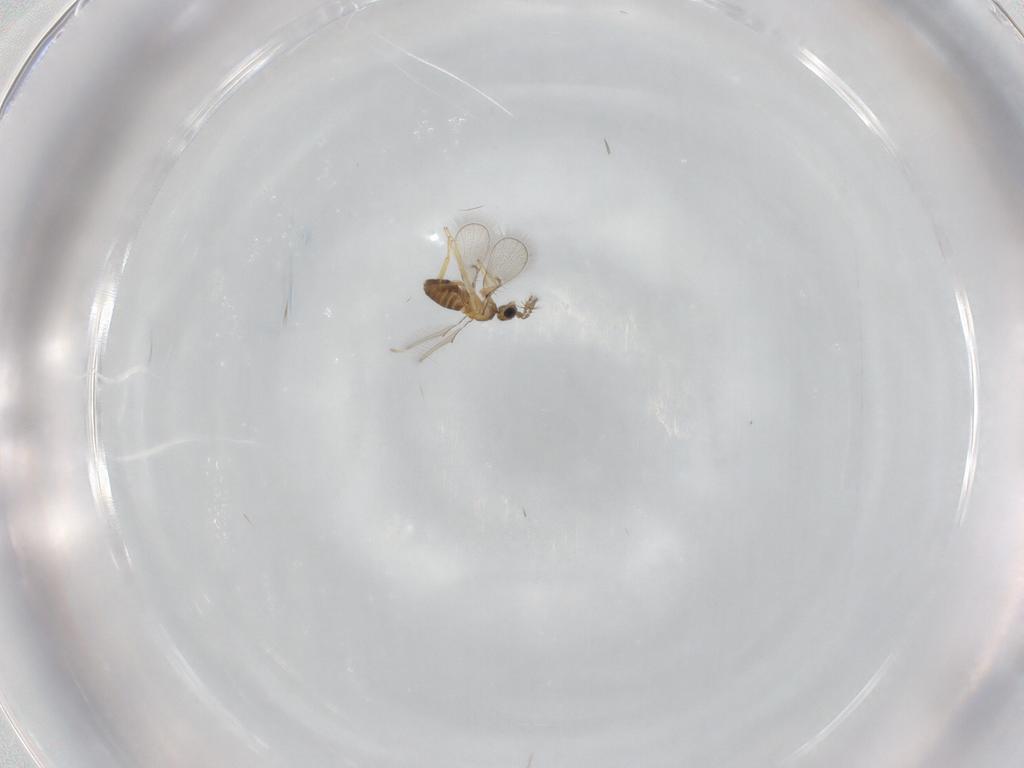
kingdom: Animalia
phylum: Arthropoda
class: Insecta
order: Hymenoptera
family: Trichogrammatidae
